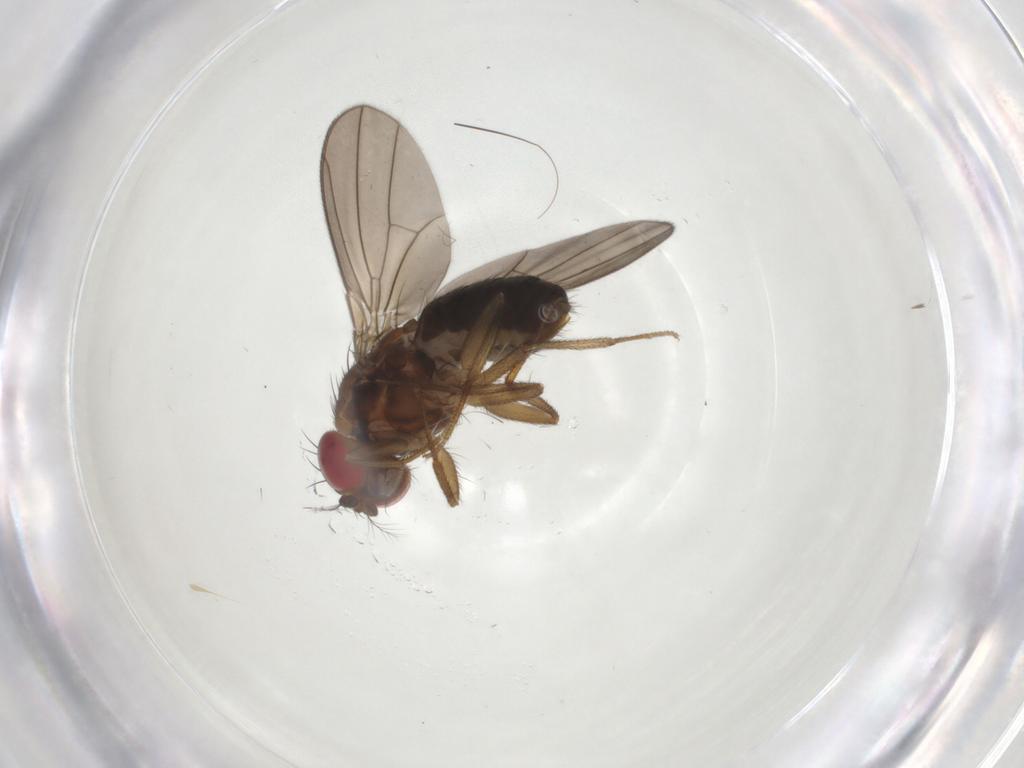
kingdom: Animalia
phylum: Arthropoda
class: Insecta
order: Diptera
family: Drosophilidae
